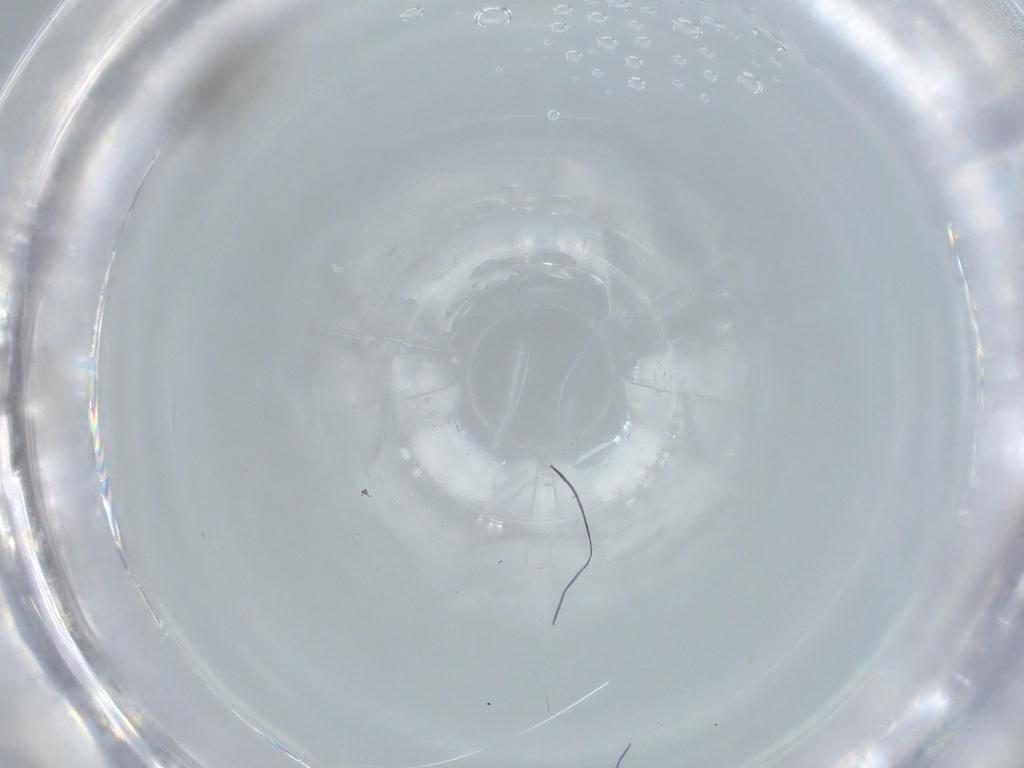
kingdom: Animalia
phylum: Arthropoda
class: Insecta
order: Hymenoptera
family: Scelionidae
